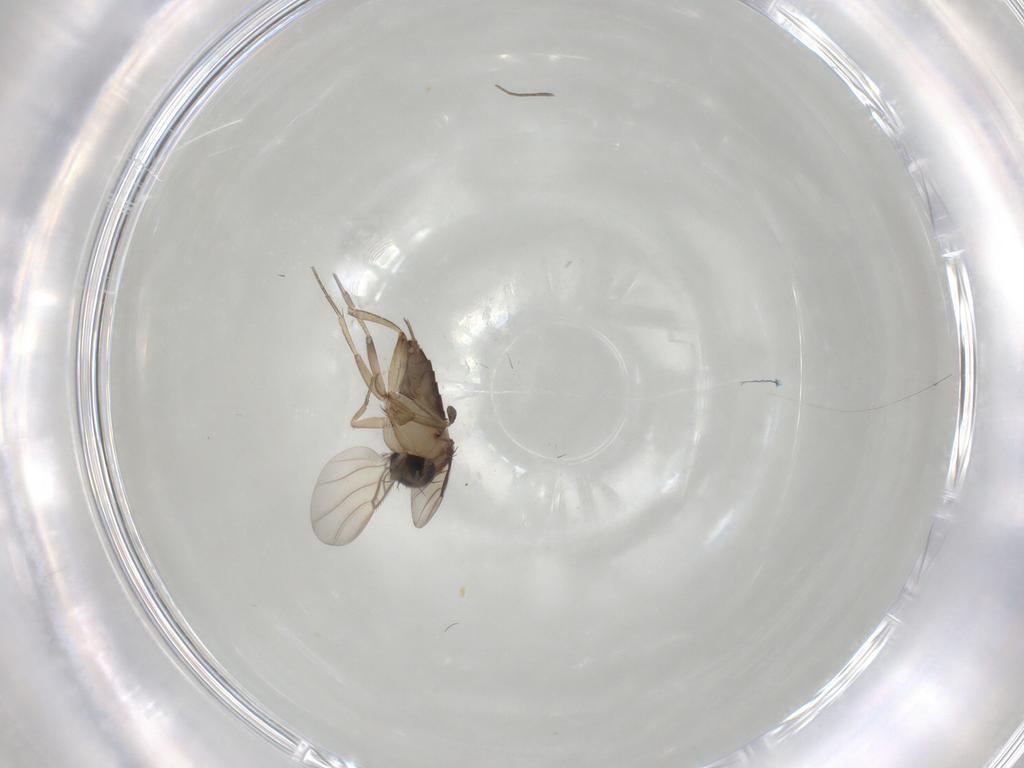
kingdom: Animalia
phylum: Arthropoda
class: Insecta
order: Diptera
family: Phoridae
